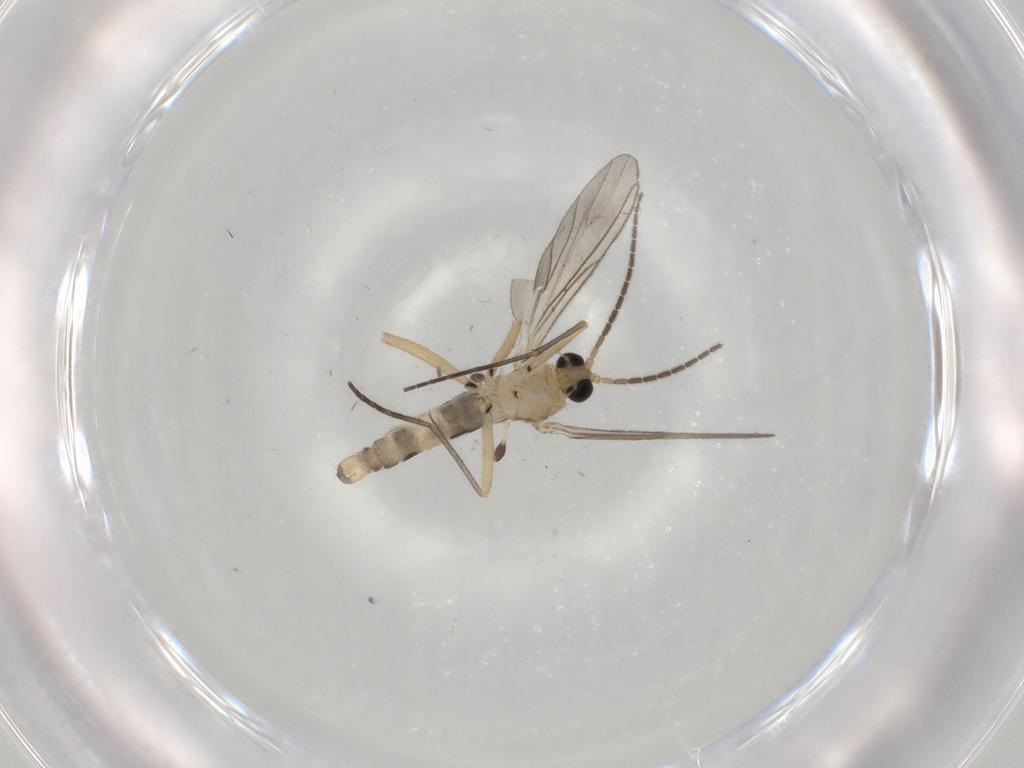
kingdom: Animalia
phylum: Arthropoda
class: Insecta
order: Diptera
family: Sciaridae
